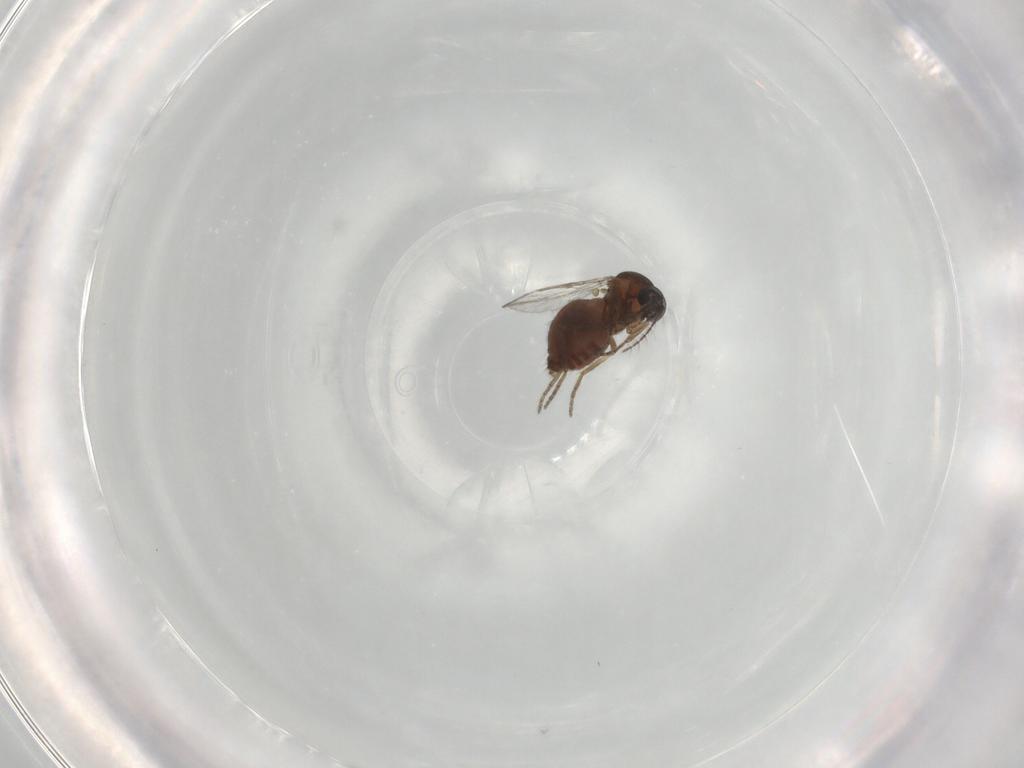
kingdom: Animalia
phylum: Arthropoda
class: Insecta
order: Diptera
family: Ceratopogonidae
